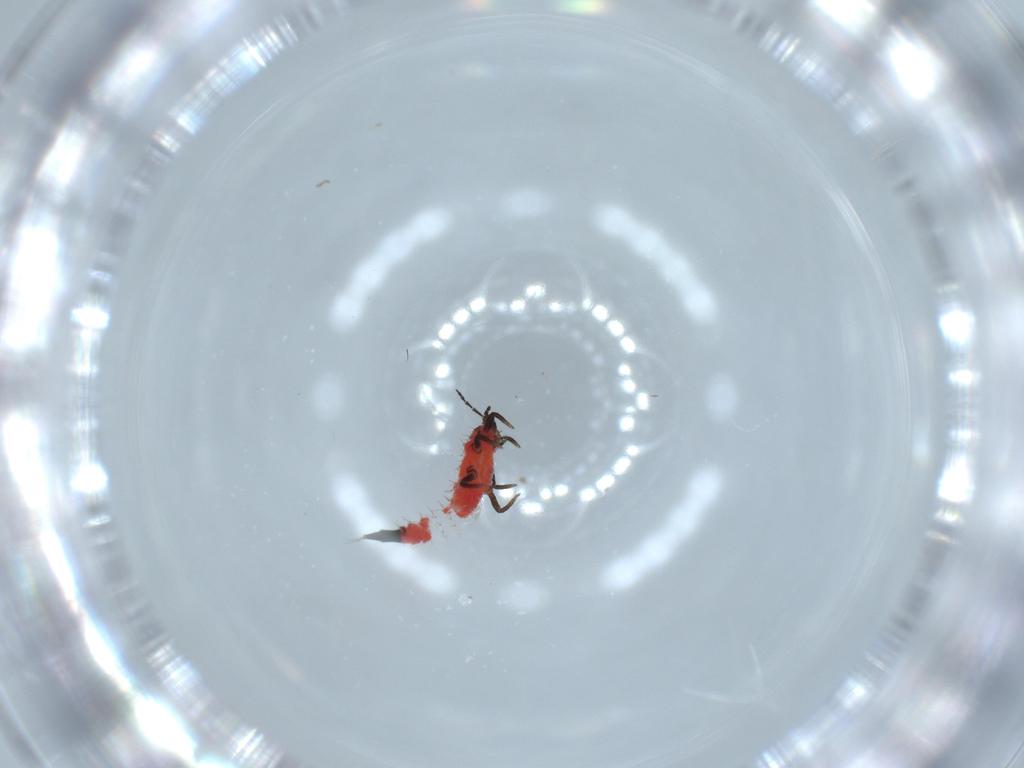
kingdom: Animalia
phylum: Arthropoda
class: Insecta
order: Thysanoptera
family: Phlaeothripidae
